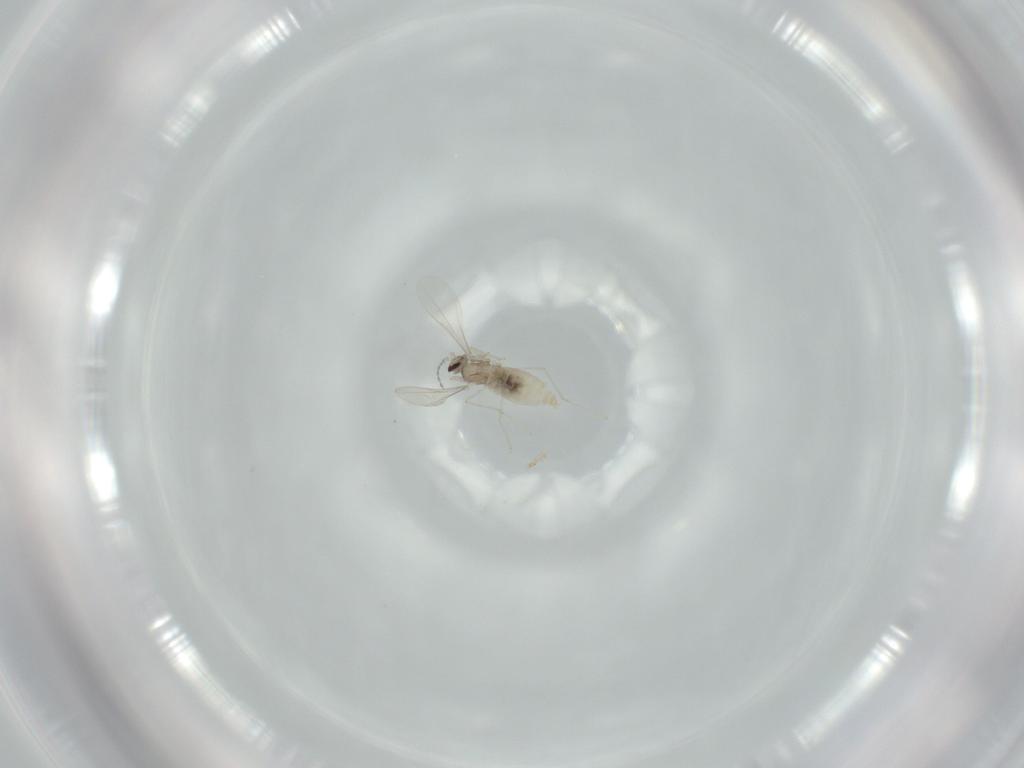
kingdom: Animalia
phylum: Arthropoda
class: Insecta
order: Diptera
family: Cecidomyiidae
